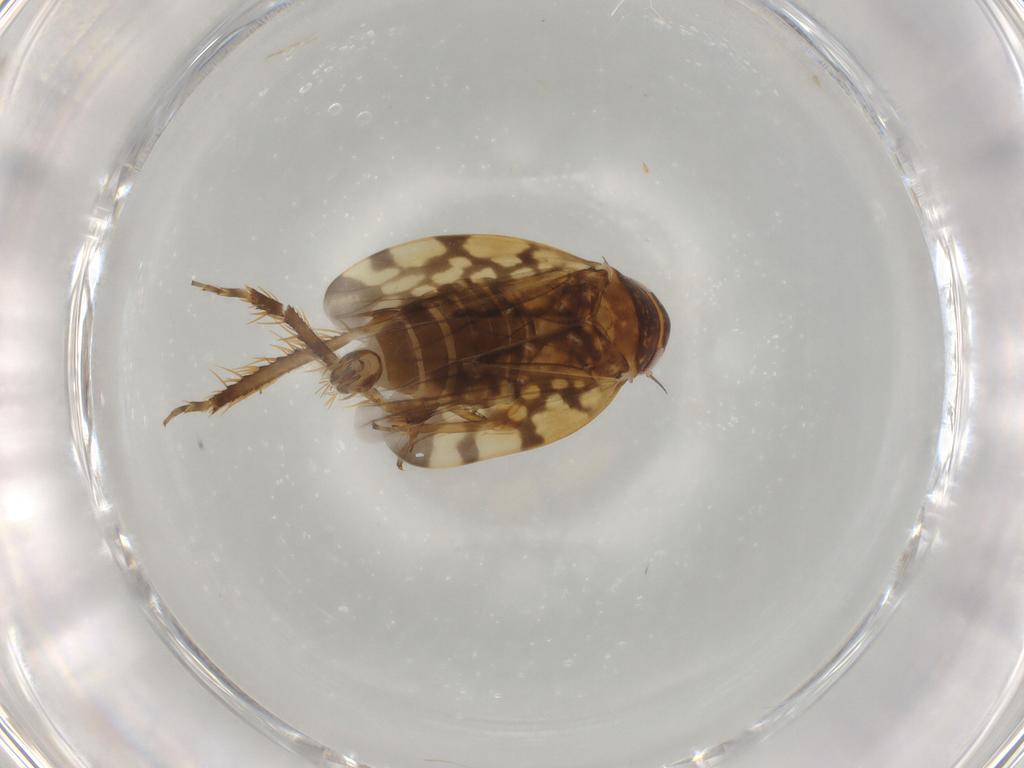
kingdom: Animalia
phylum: Arthropoda
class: Insecta
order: Hemiptera
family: Cicadellidae
